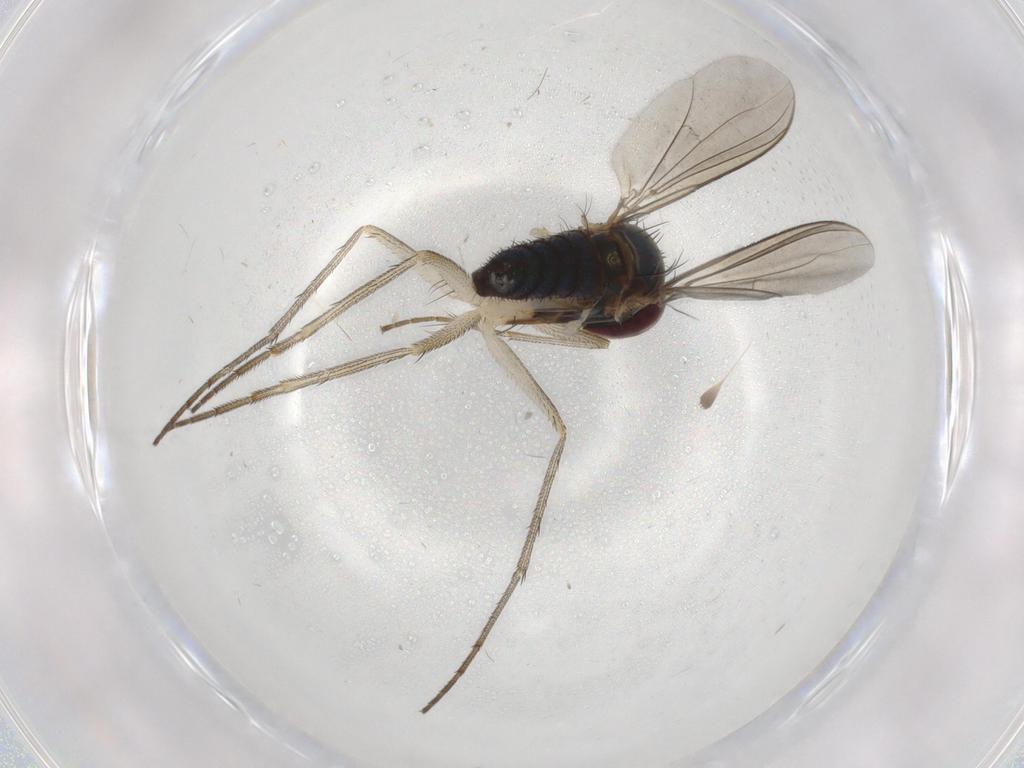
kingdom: Animalia
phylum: Arthropoda
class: Insecta
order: Diptera
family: Dolichopodidae
